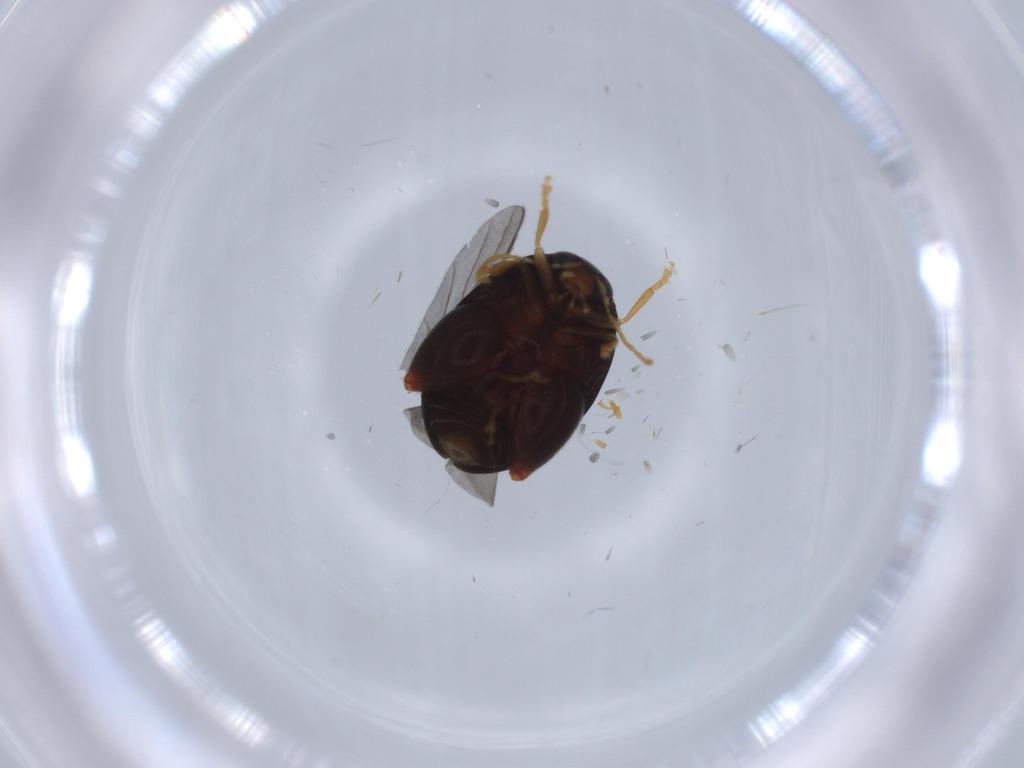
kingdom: Animalia
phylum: Arthropoda
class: Insecta
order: Coleoptera
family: Chrysomelidae
